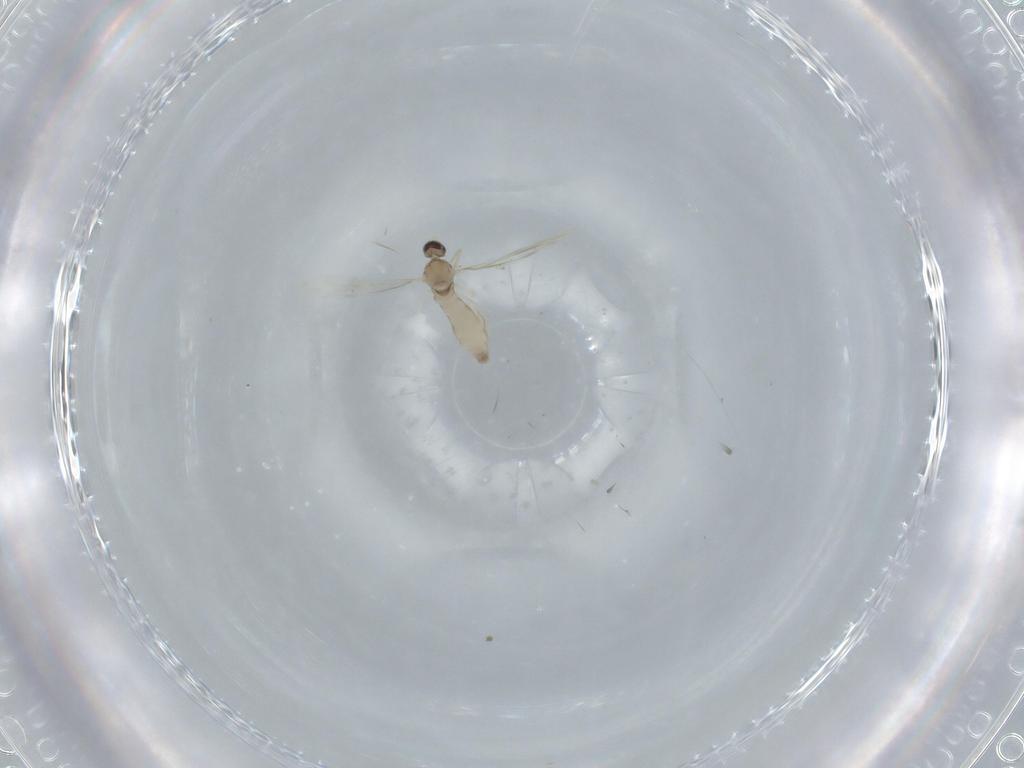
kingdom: Animalia
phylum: Arthropoda
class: Insecta
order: Diptera
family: Cecidomyiidae
